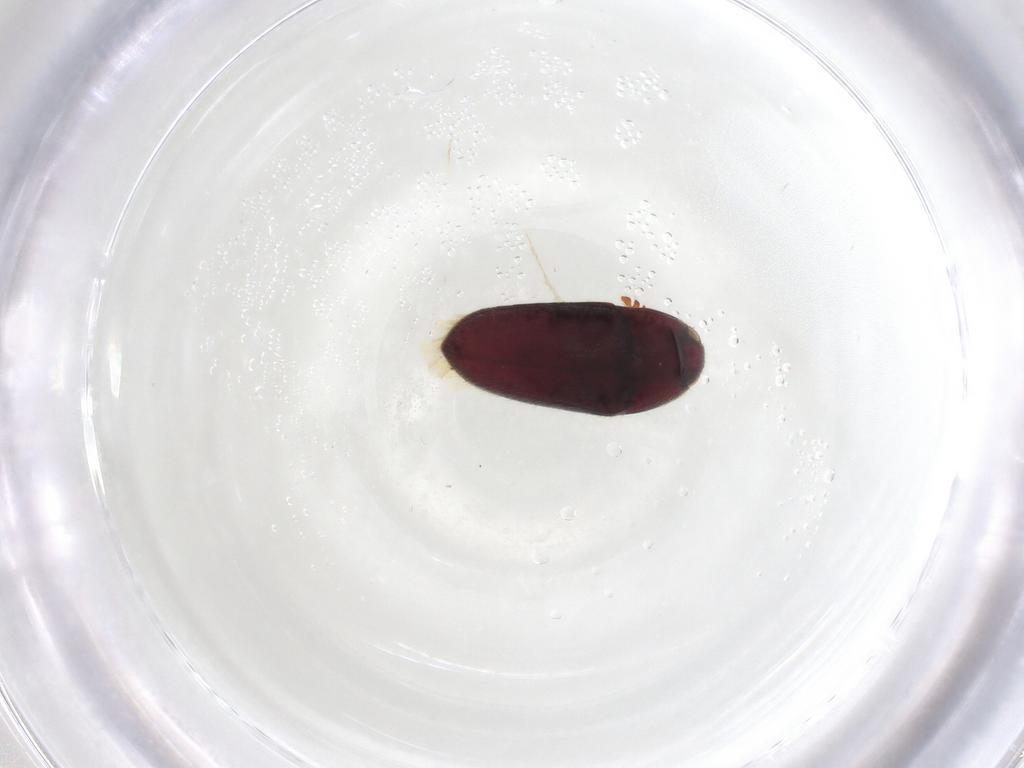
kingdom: Animalia
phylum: Arthropoda
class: Insecta
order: Coleoptera
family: Throscidae
